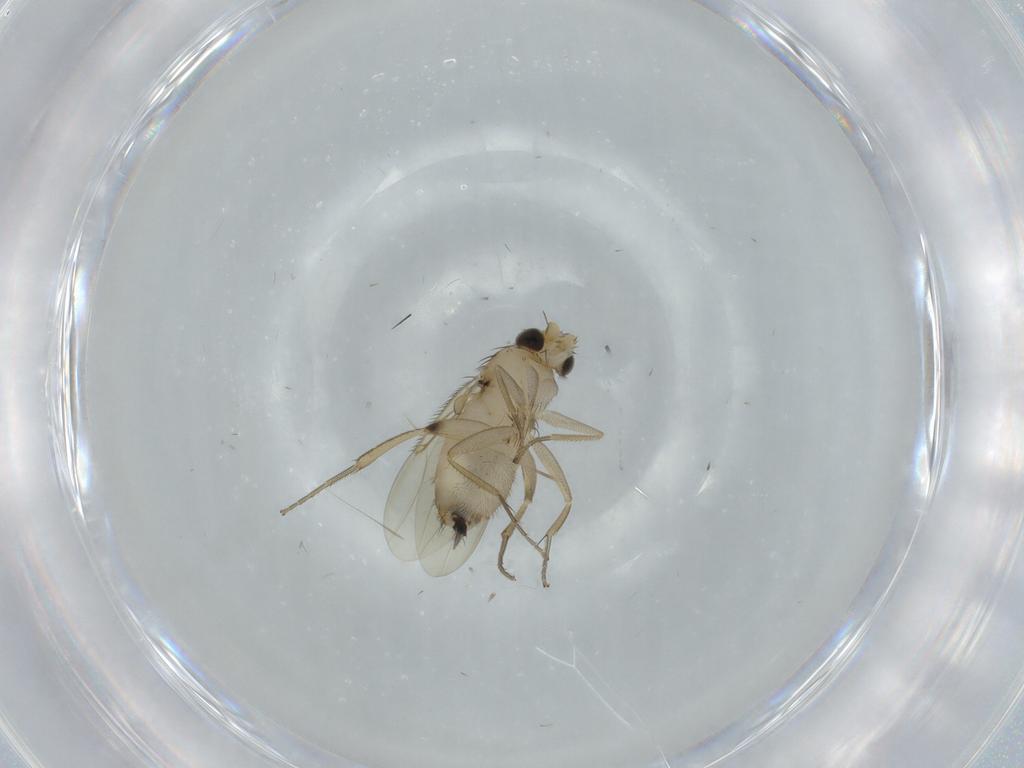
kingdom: Animalia
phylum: Arthropoda
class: Insecta
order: Diptera
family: Phoridae
